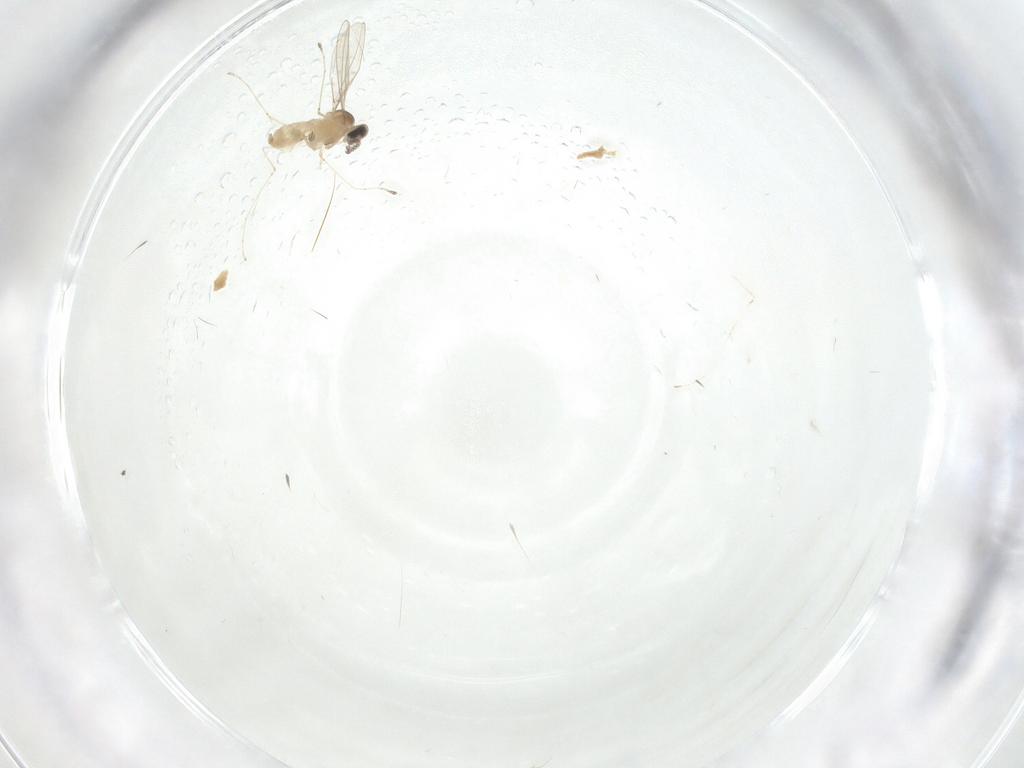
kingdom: Animalia
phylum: Arthropoda
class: Insecta
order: Diptera
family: Cecidomyiidae
